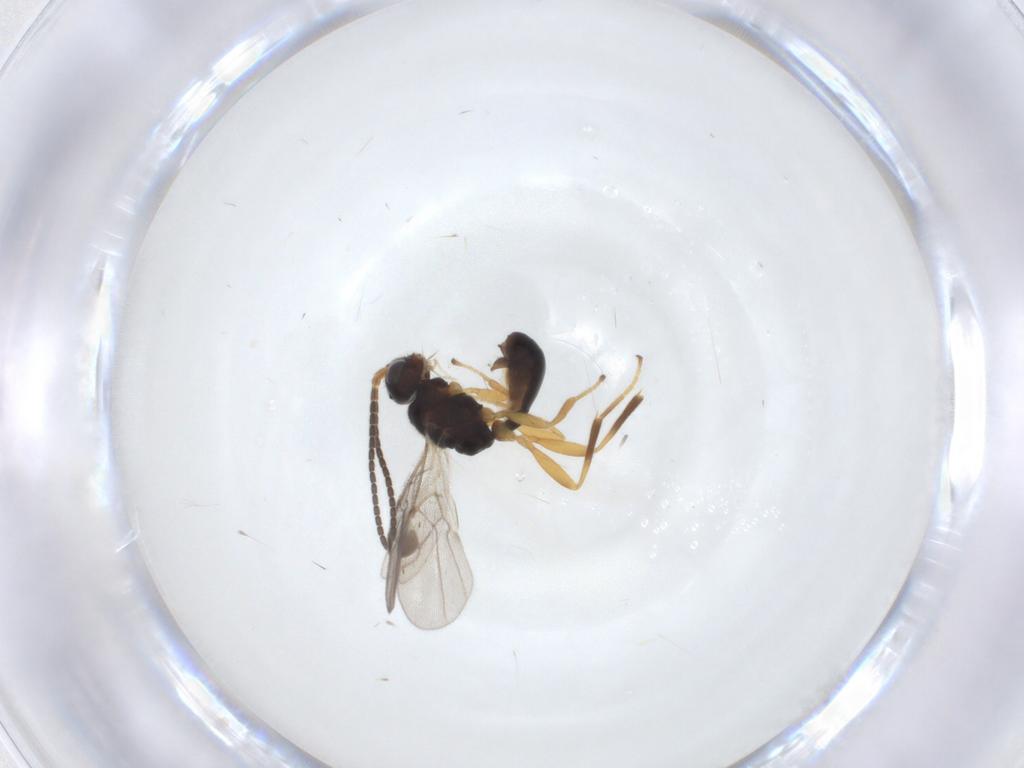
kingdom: Animalia
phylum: Arthropoda
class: Insecta
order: Hymenoptera
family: Braconidae
